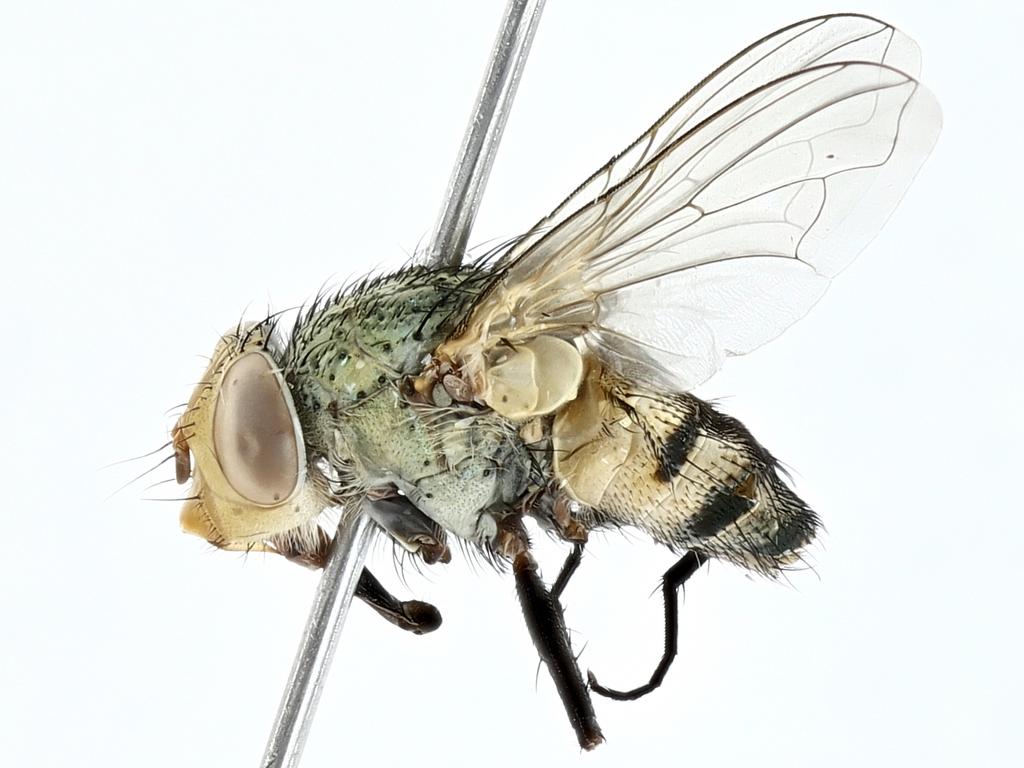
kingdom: Animalia
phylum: Arthropoda
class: Insecta
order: Diptera
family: Calliphoridae
